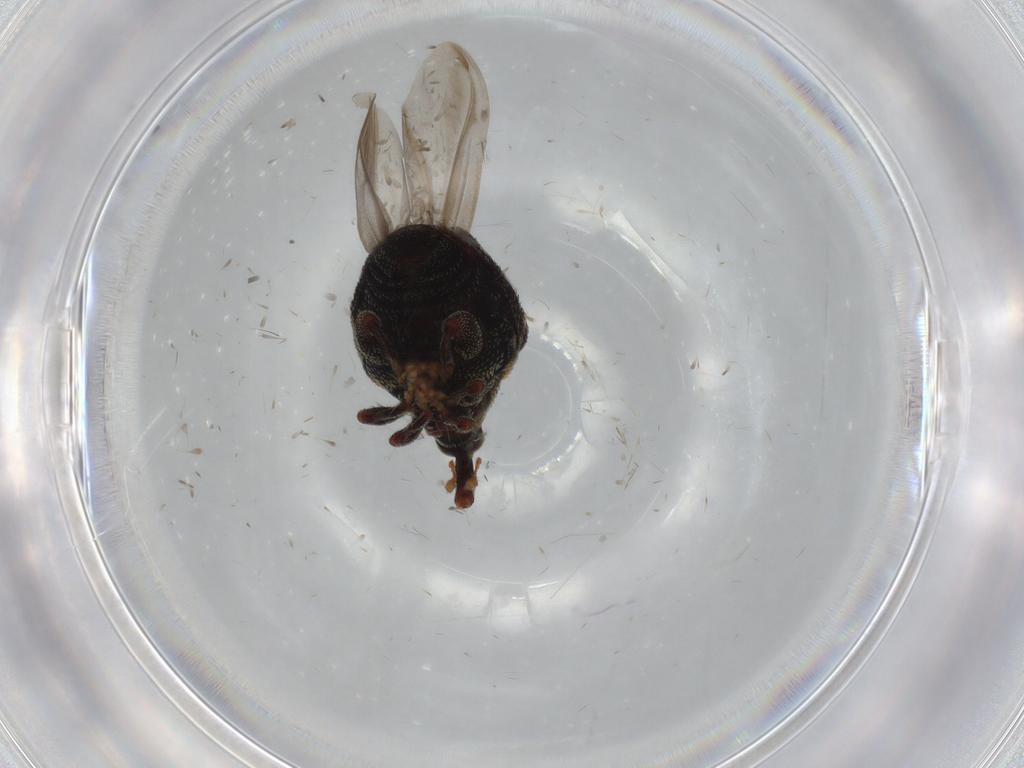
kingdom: Animalia
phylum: Arthropoda
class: Insecta
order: Coleoptera
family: Curculionidae
